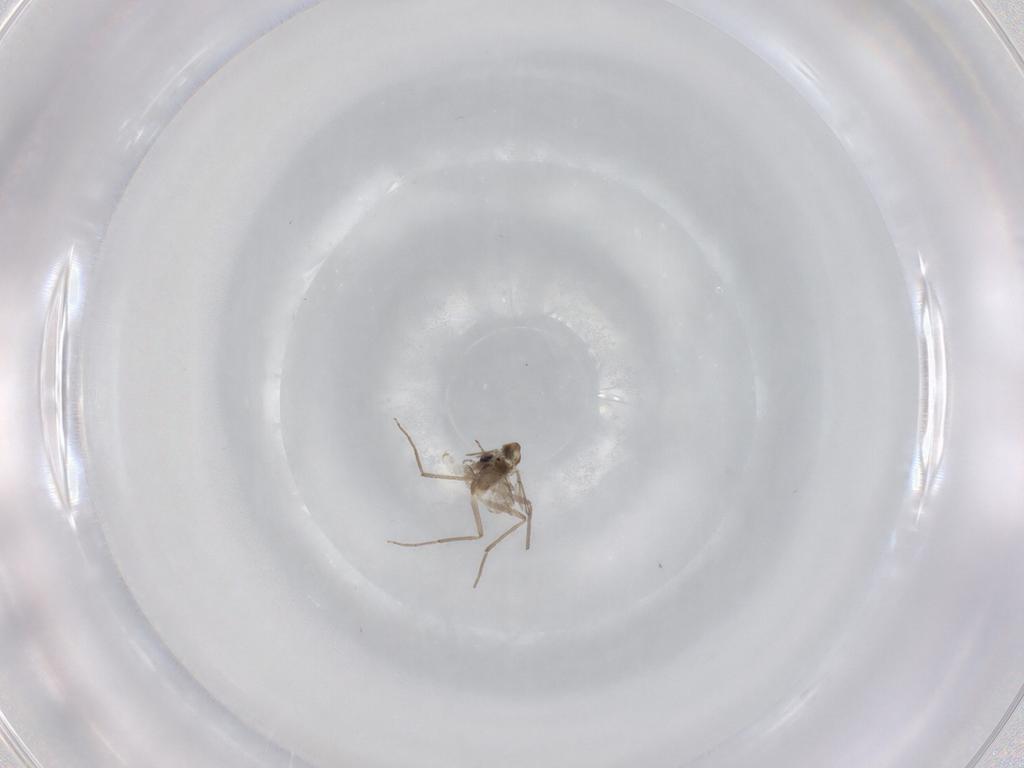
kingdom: Animalia
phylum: Arthropoda
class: Insecta
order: Diptera
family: Chironomidae
